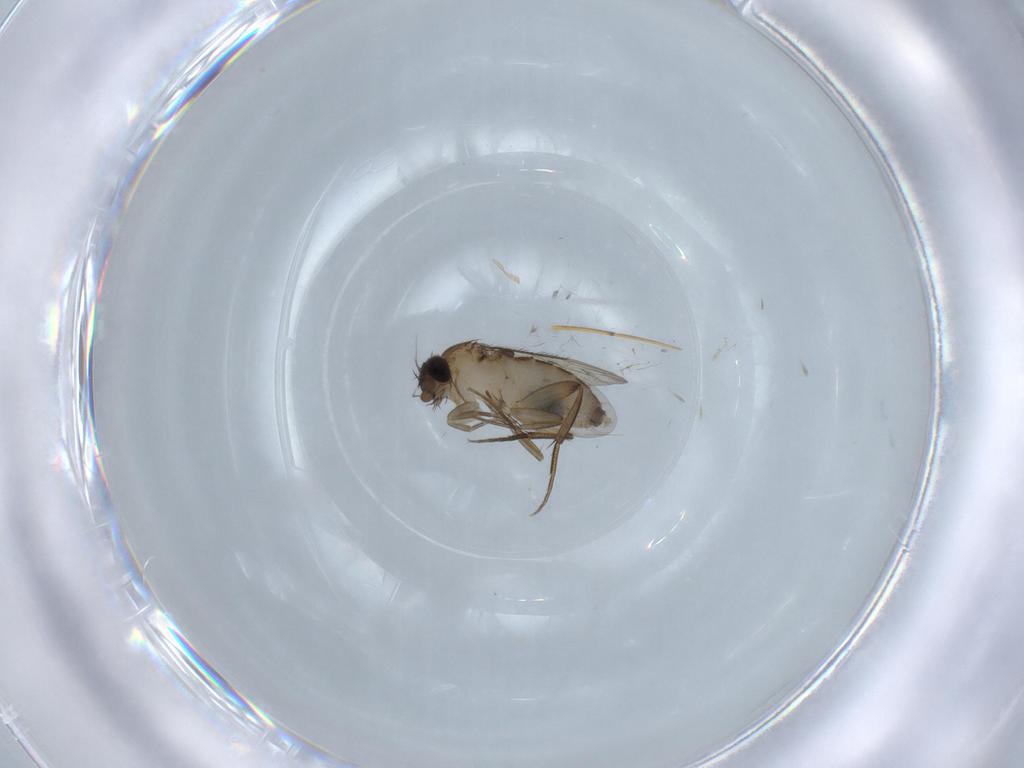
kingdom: Animalia
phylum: Arthropoda
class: Insecta
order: Diptera
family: Phoridae
